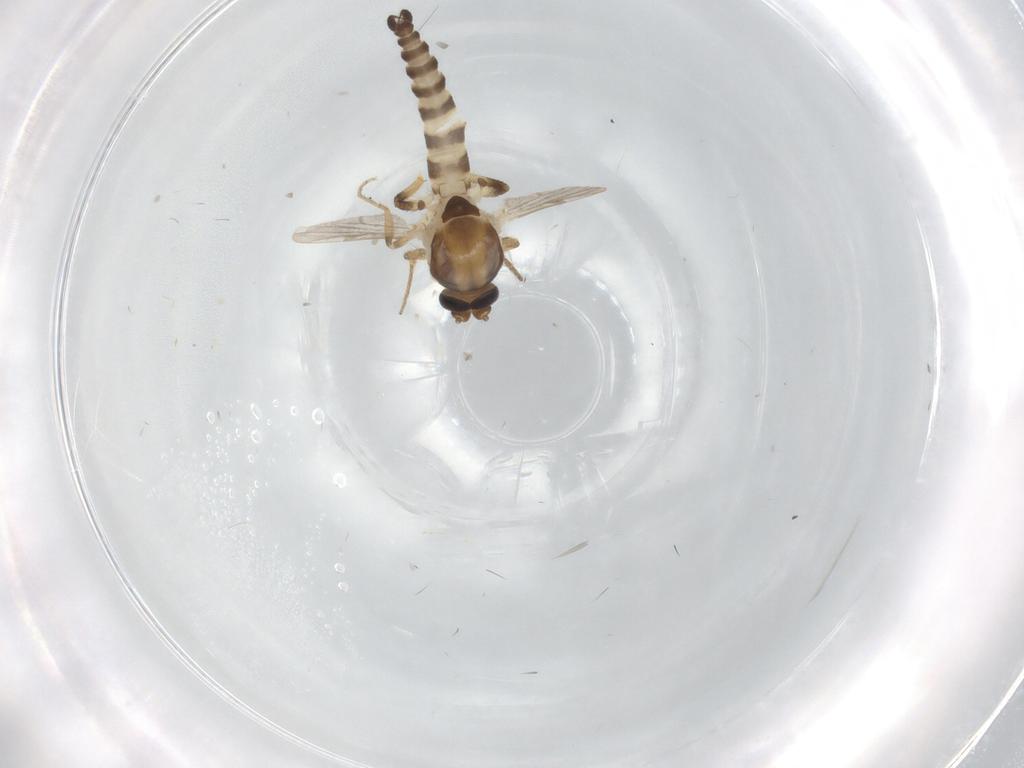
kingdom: Animalia
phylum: Arthropoda
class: Insecta
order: Diptera
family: Ceratopogonidae
